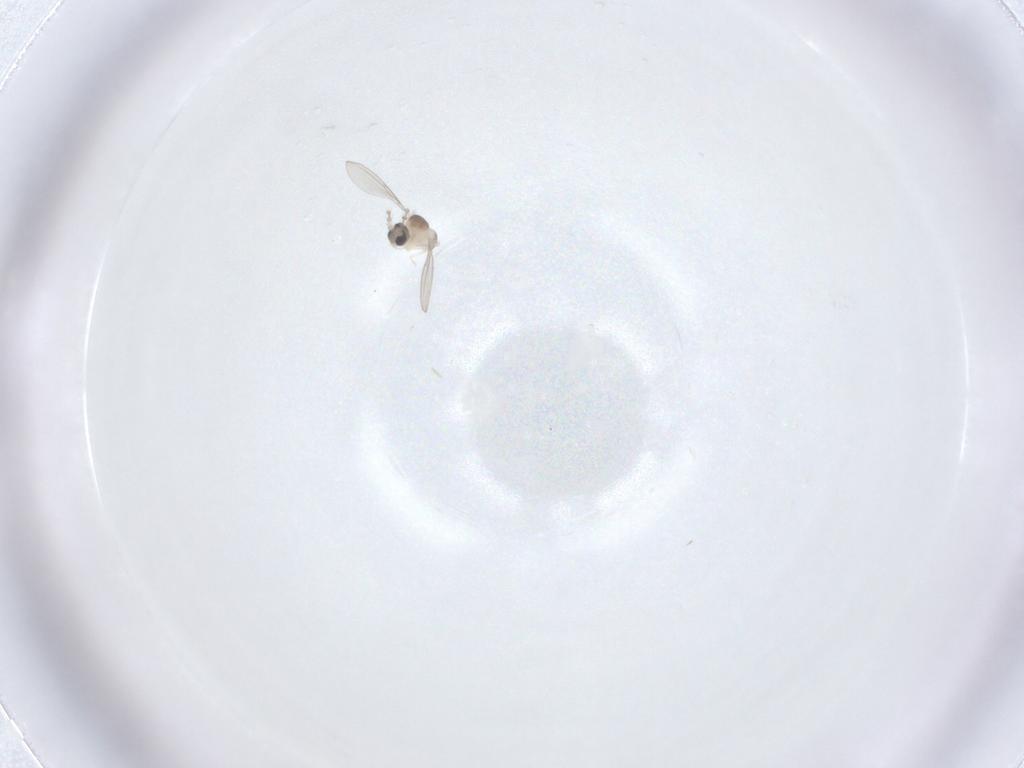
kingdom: Animalia
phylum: Arthropoda
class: Insecta
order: Diptera
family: Cecidomyiidae
